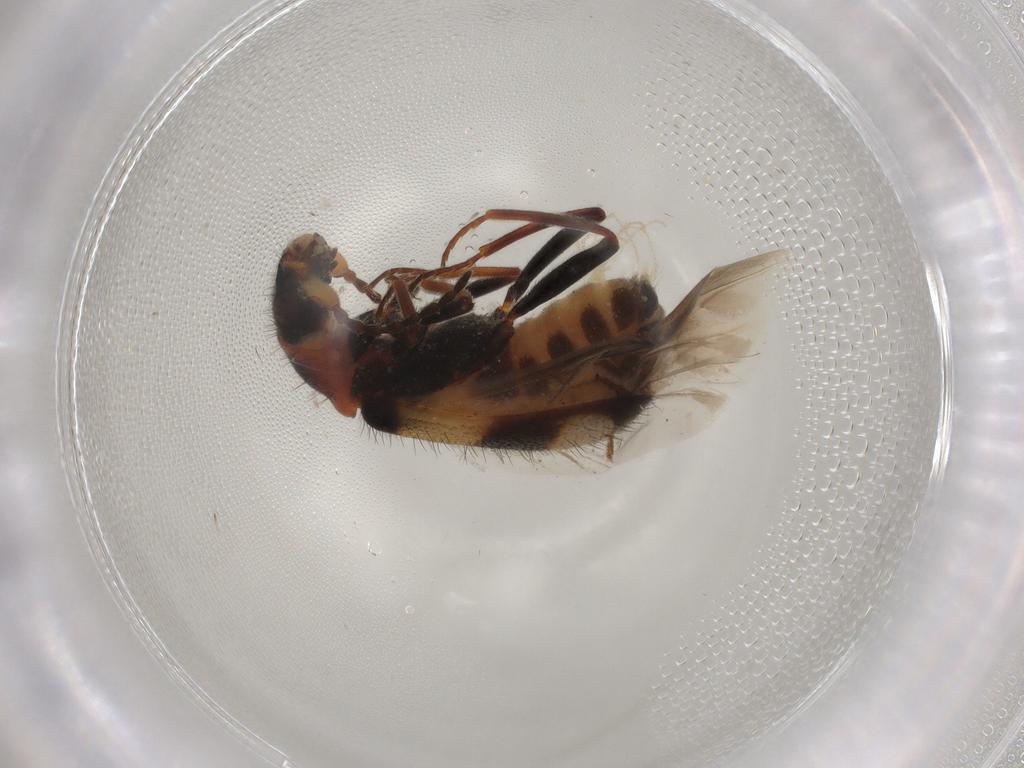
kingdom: Animalia
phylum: Arthropoda
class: Insecta
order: Coleoptera
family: Melyridae
